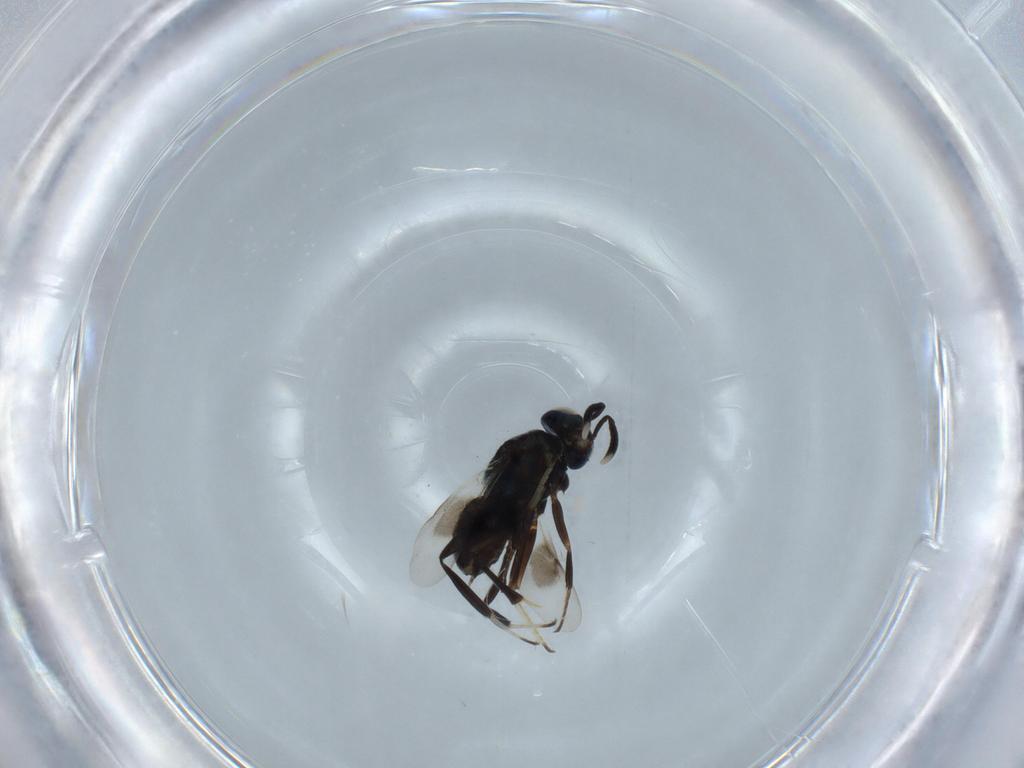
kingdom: Animalia
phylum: Arthropoda
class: Insecta
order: Hymenoptera
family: Encyrtidae
